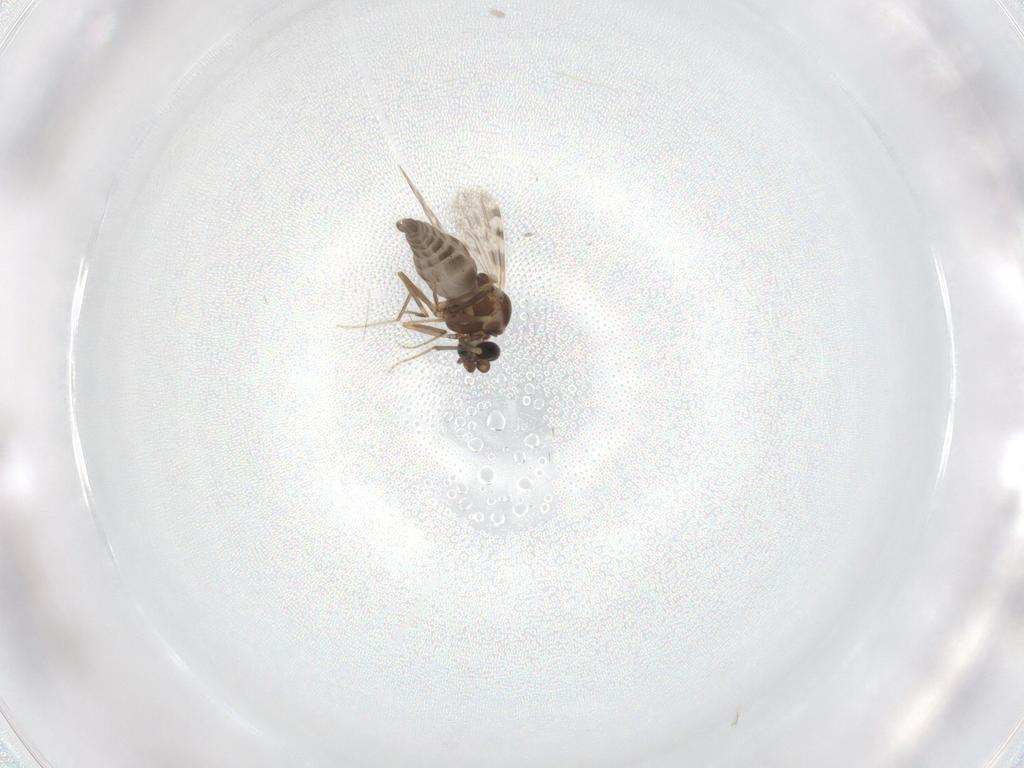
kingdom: Animalia
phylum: Arthropoda
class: Insecta
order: Diptera
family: Ceratopogonidae
